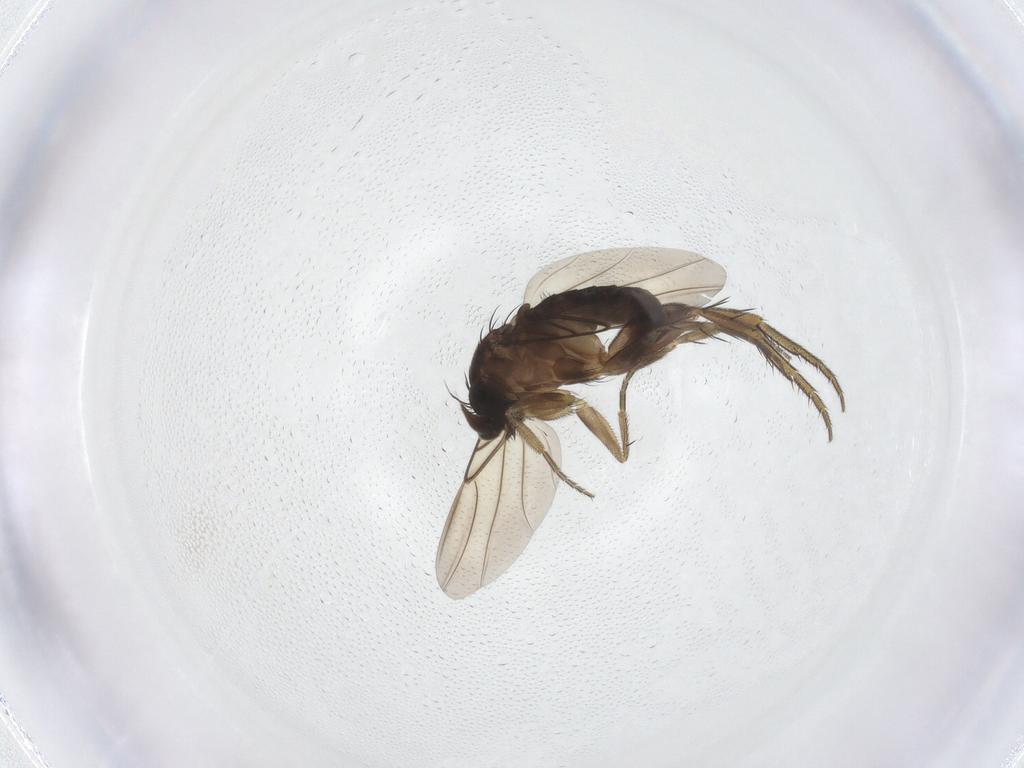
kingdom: Animalia
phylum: Arthropoda
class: Insecta
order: Diptera
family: Phoridae
